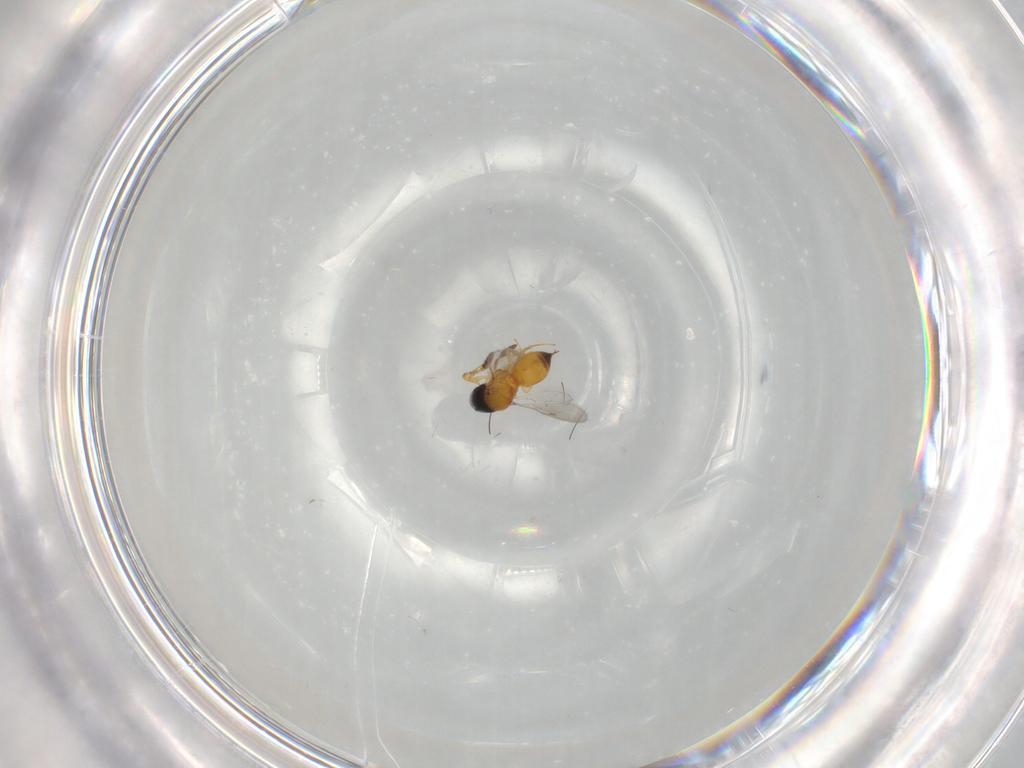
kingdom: Animalia
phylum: Arthropoda
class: Insecta
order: Hymenoptera
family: Scelionidae
